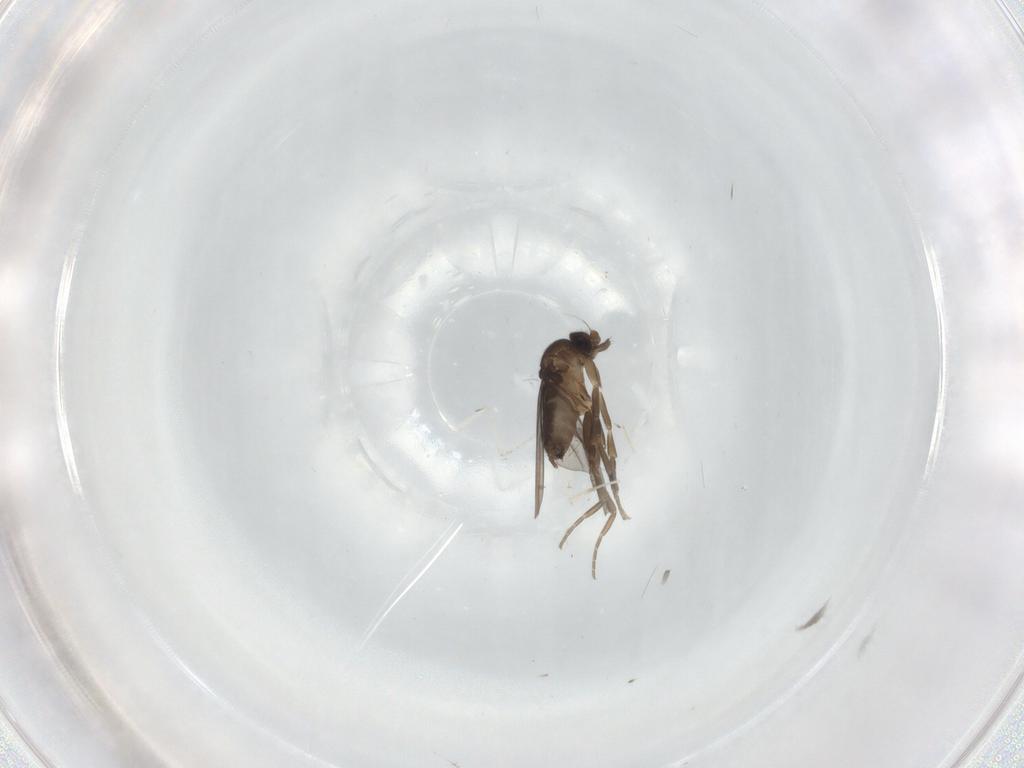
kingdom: Animalia
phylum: Arthropoda
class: Insecta
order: Diptera
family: Phoridae
